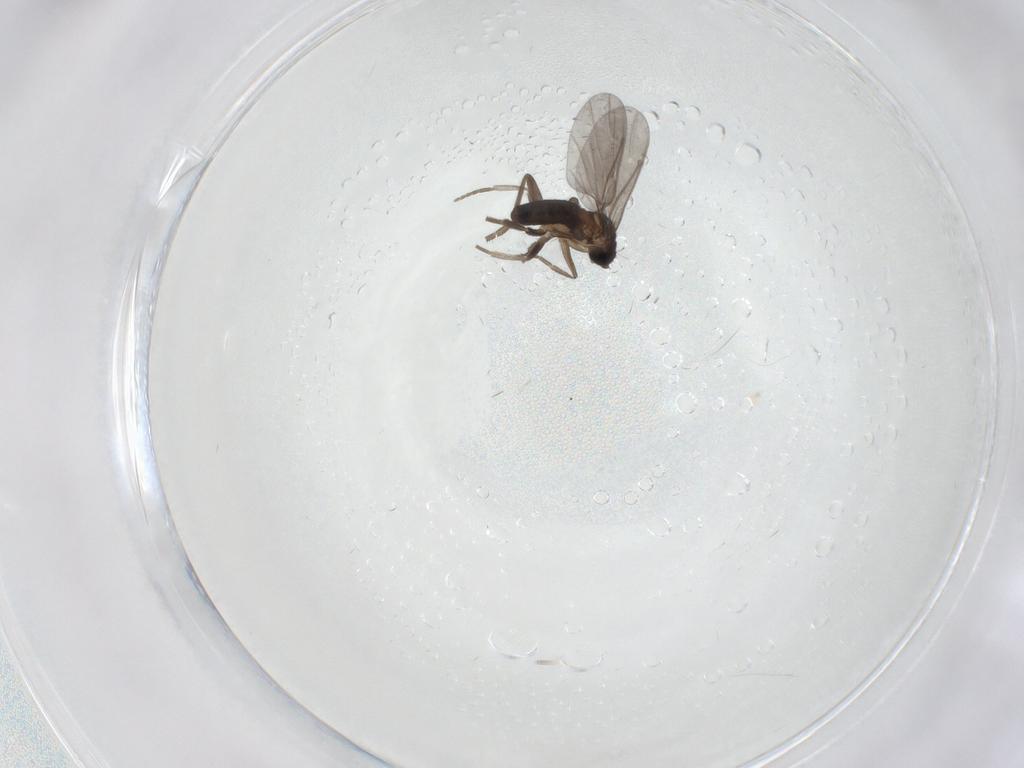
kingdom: Animalia
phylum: Arthropoda
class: Insecta
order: Diptera
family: Phoridae
